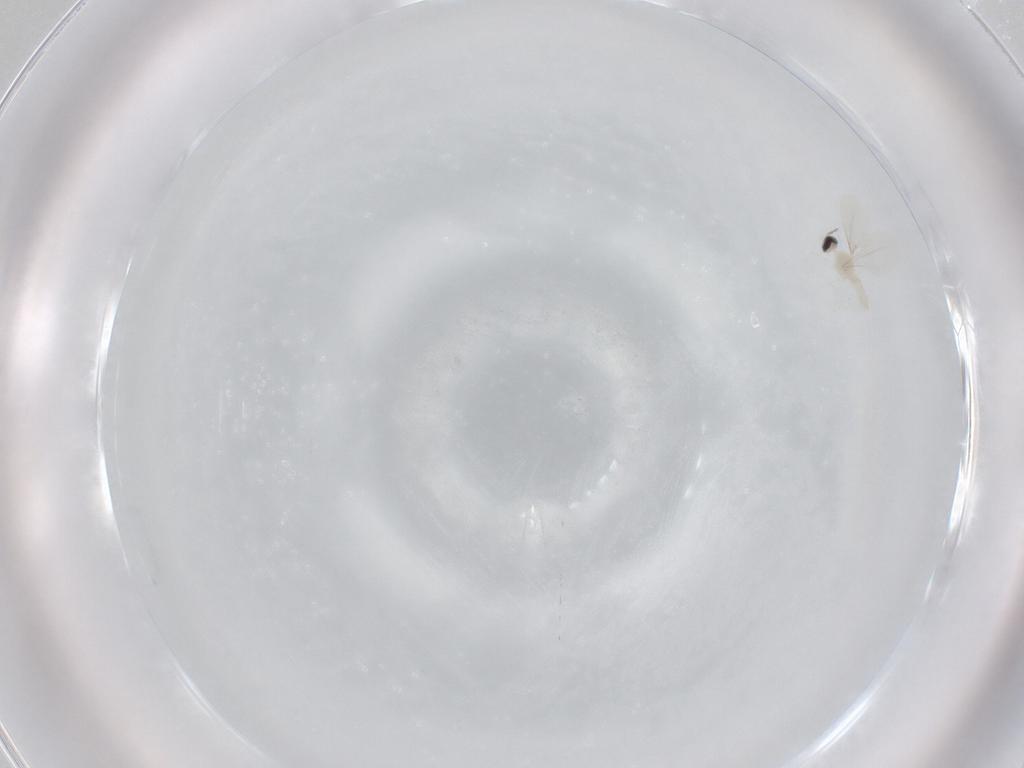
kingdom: Animalia
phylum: Arthropoda
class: Insecta
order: Diptera
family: Cecidomyiidae
